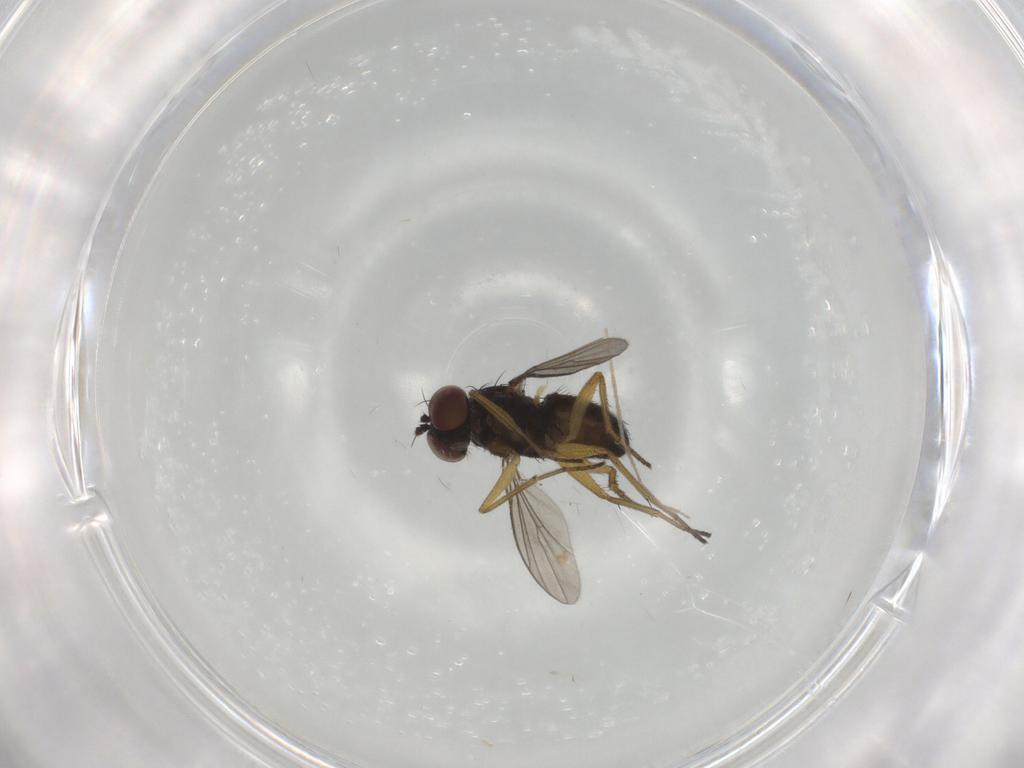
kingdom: Animalia
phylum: Arthropoda
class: Insecta
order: Diptera
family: Dolichopodidae
